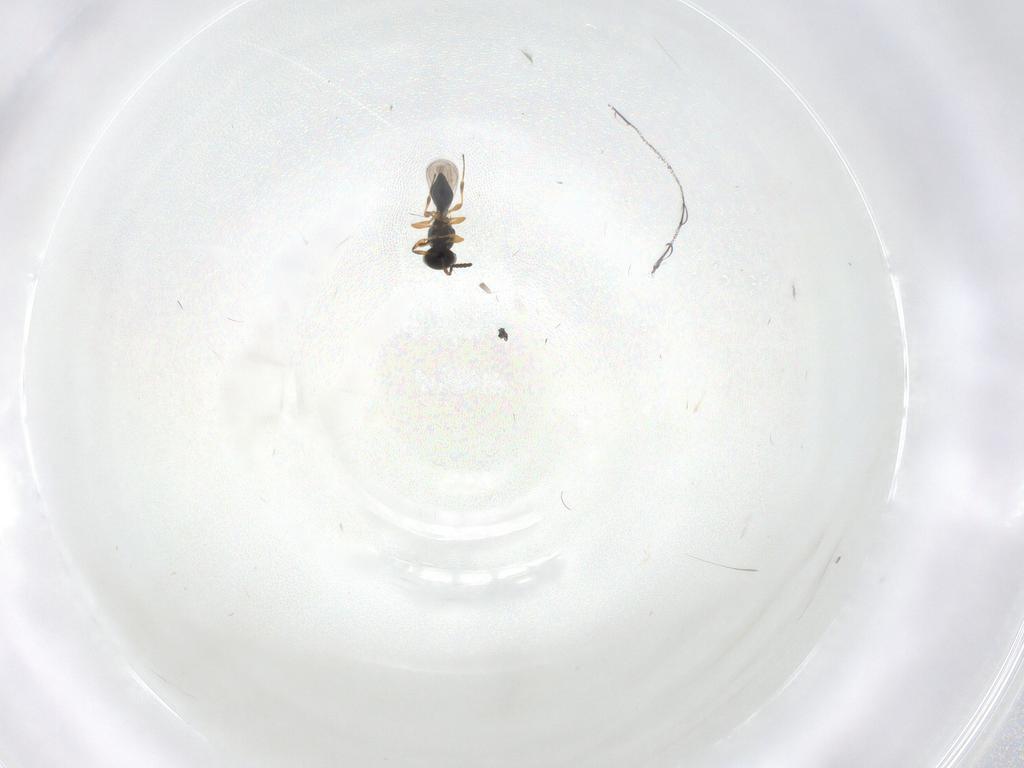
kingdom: Animalia
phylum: Arthropoda
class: Insecta
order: Hymenoptera
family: Platygastridae
